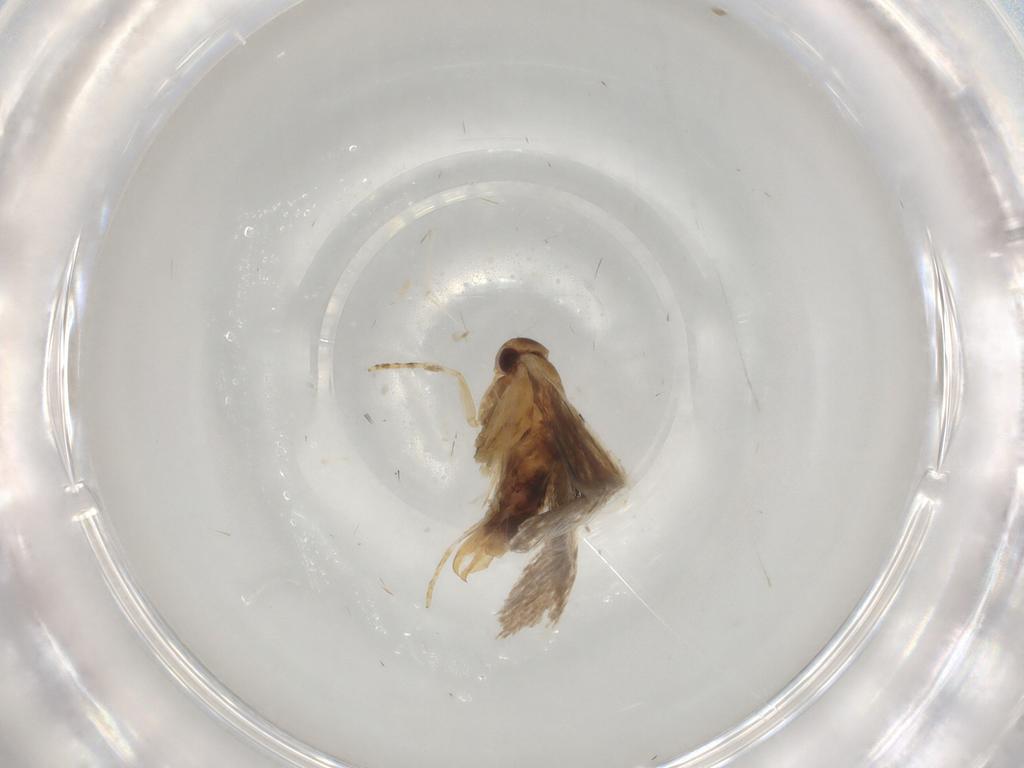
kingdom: Animalia
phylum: Arthropoda
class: Insecta
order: Lepidoptera
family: Oecophoridae
